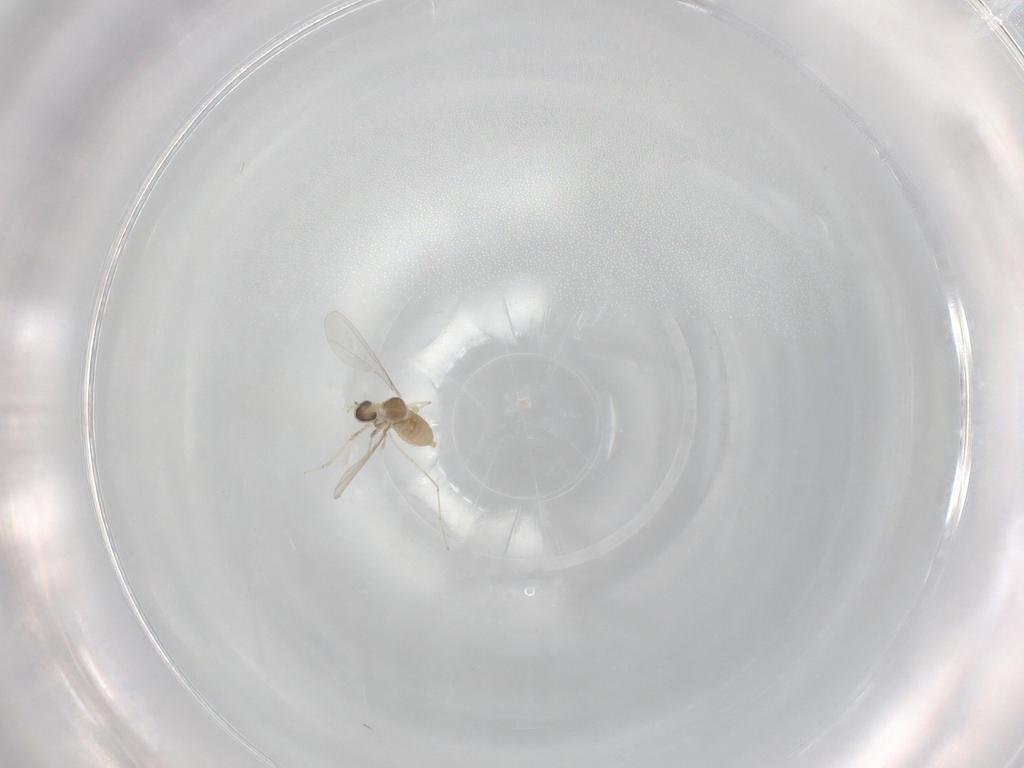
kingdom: Animalia
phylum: Arthropoda
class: Insecta
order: Diptera
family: Cecidomyiidae
